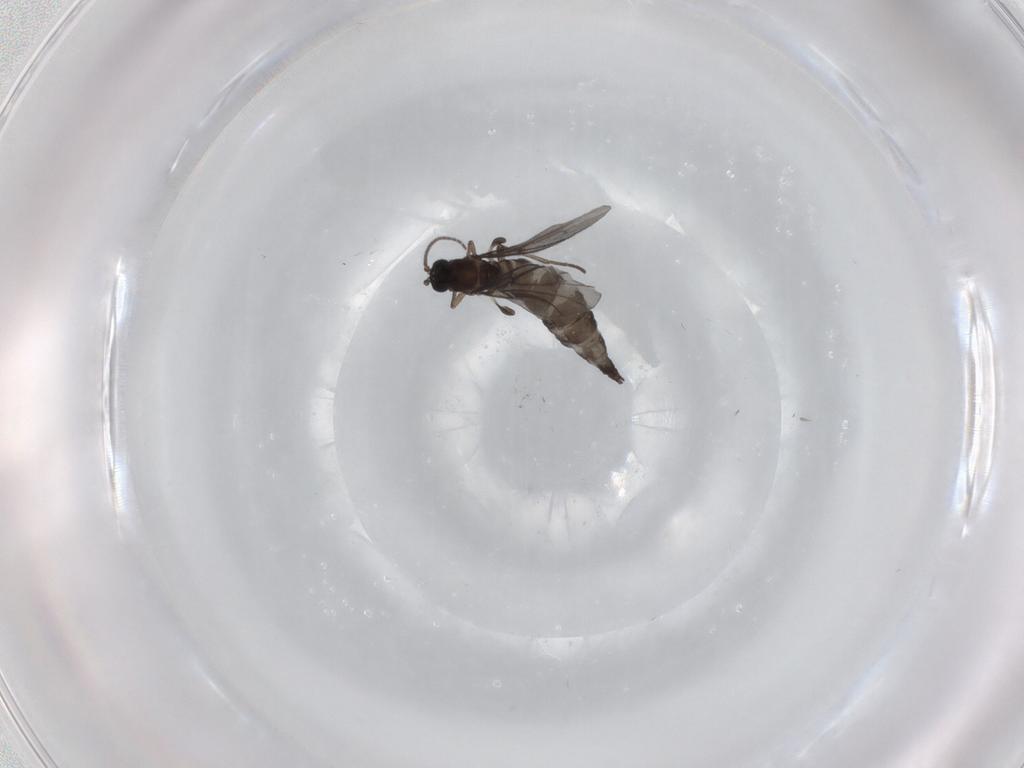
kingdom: Animalia
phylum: Arthropoda
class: Insecta
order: Diptera
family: Sciaridae
